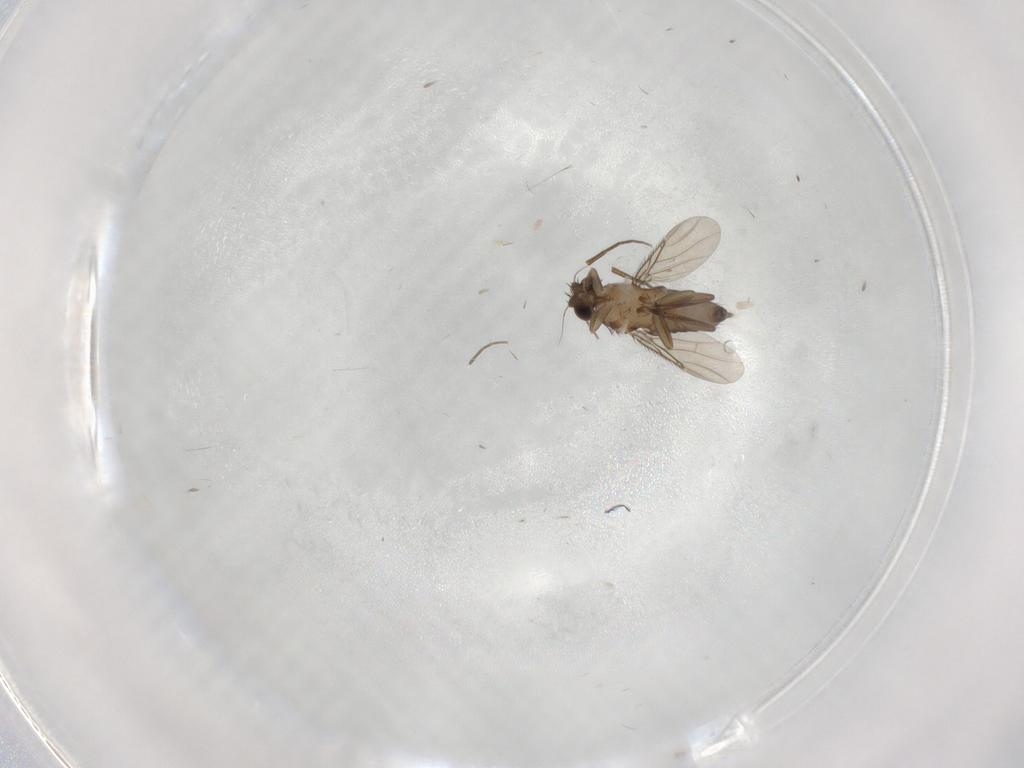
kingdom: Animalia
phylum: Arthropoda
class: Insecta
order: Diptera
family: Phoridae
